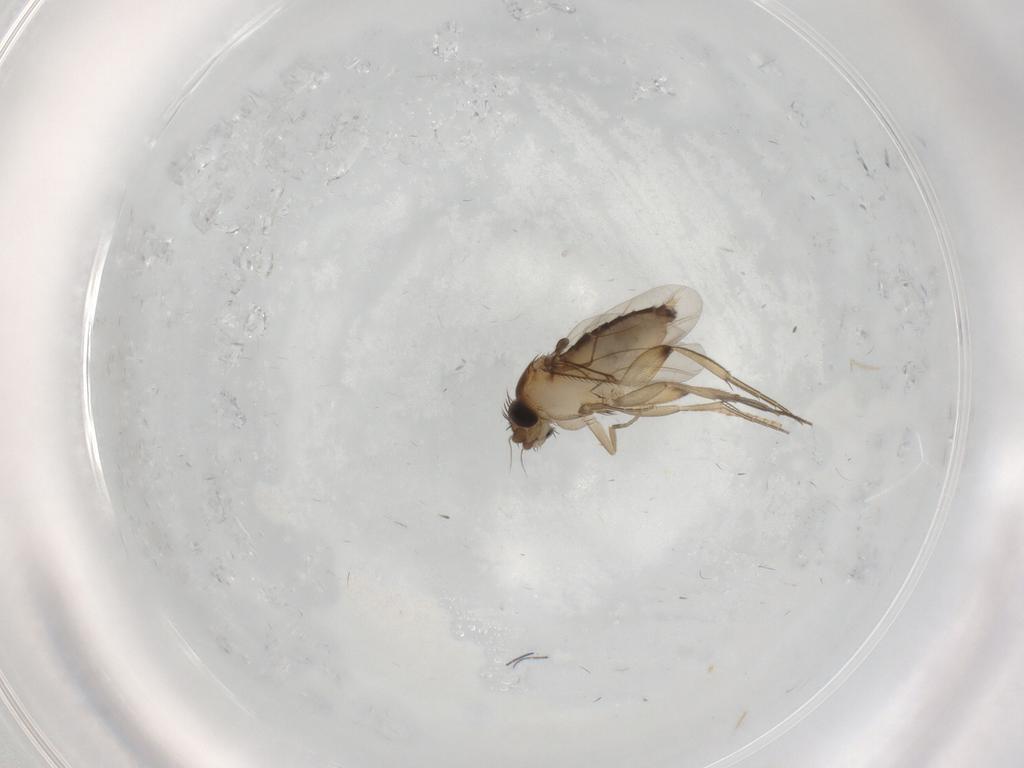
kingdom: Animalia
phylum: Arthropoda
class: Insecta
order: Diptera
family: Phoridae
